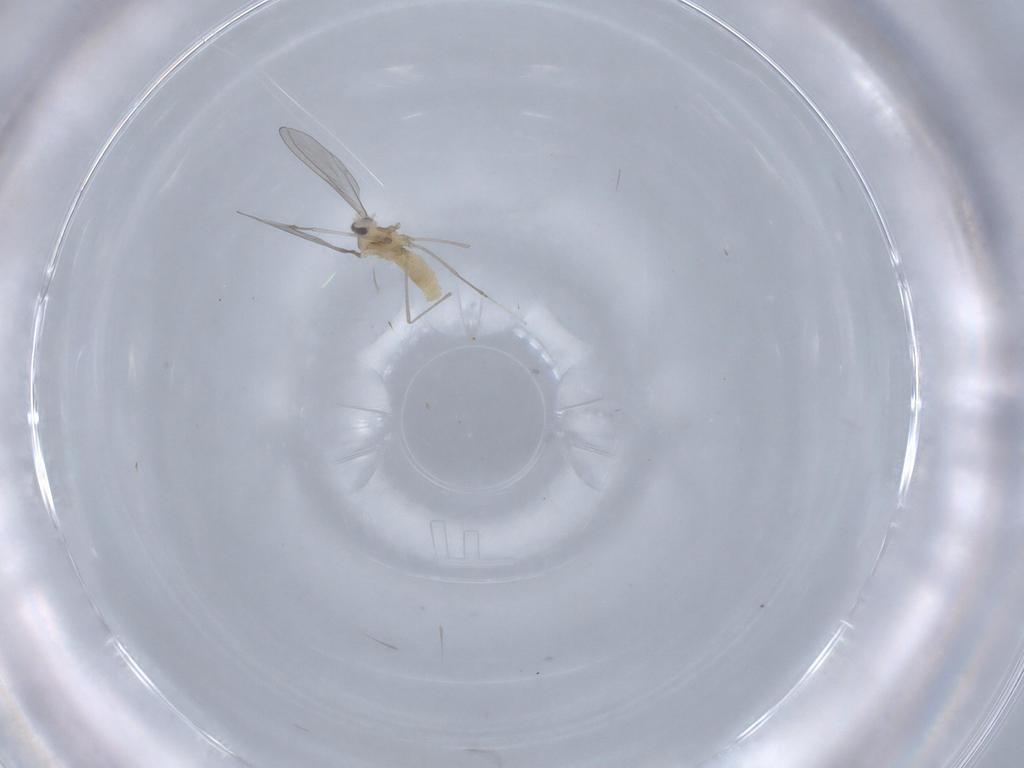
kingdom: Animalia
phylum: Arthropoda
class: Insecta
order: Diptera
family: Cecidomyiidae
